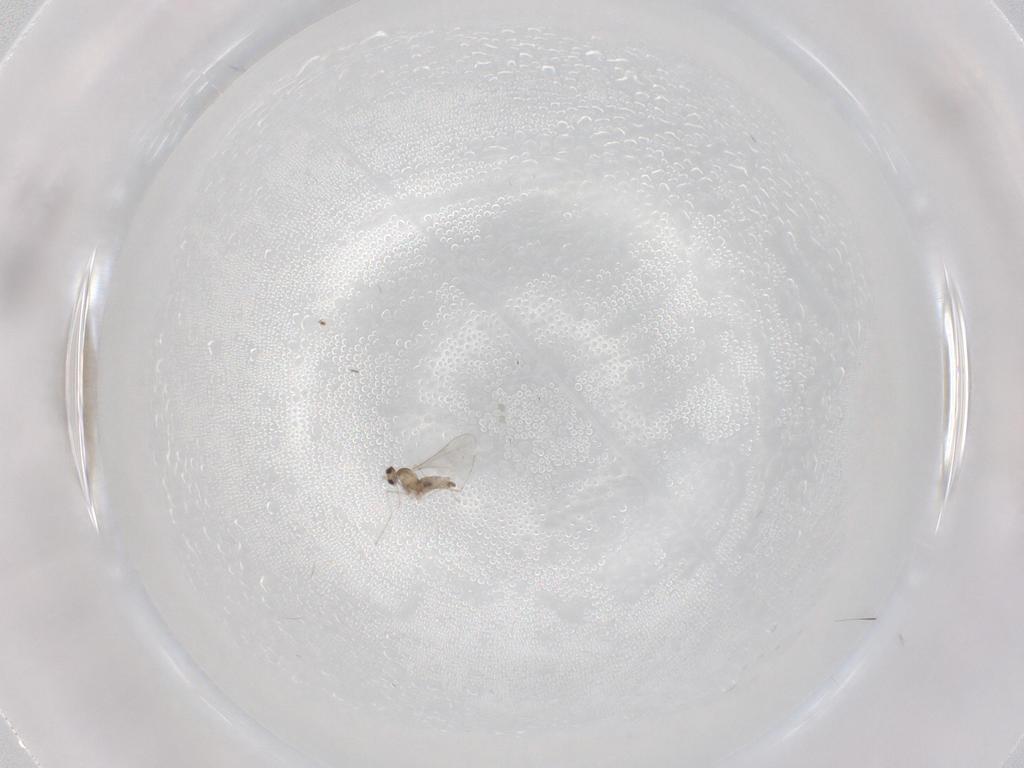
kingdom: Animalia
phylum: Arthropoda
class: Insecta
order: Diptera
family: Cecidomyiidae
